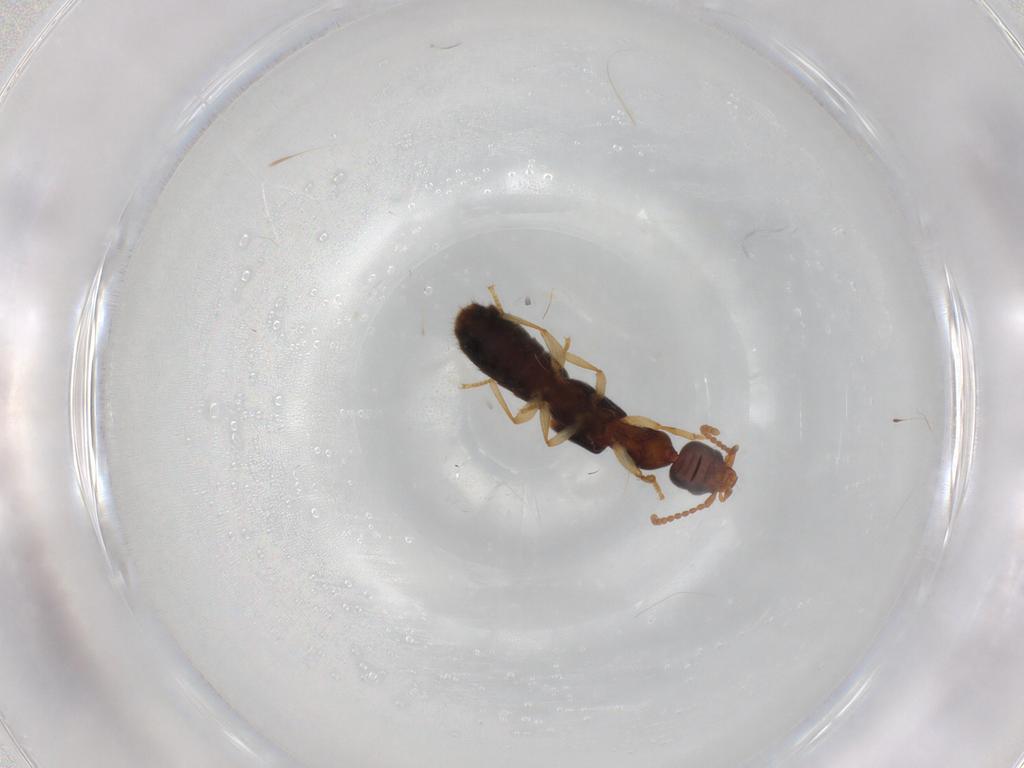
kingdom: Animalia
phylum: Arthropoda
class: Insecta
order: Coleoptera
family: Staphylinidae
